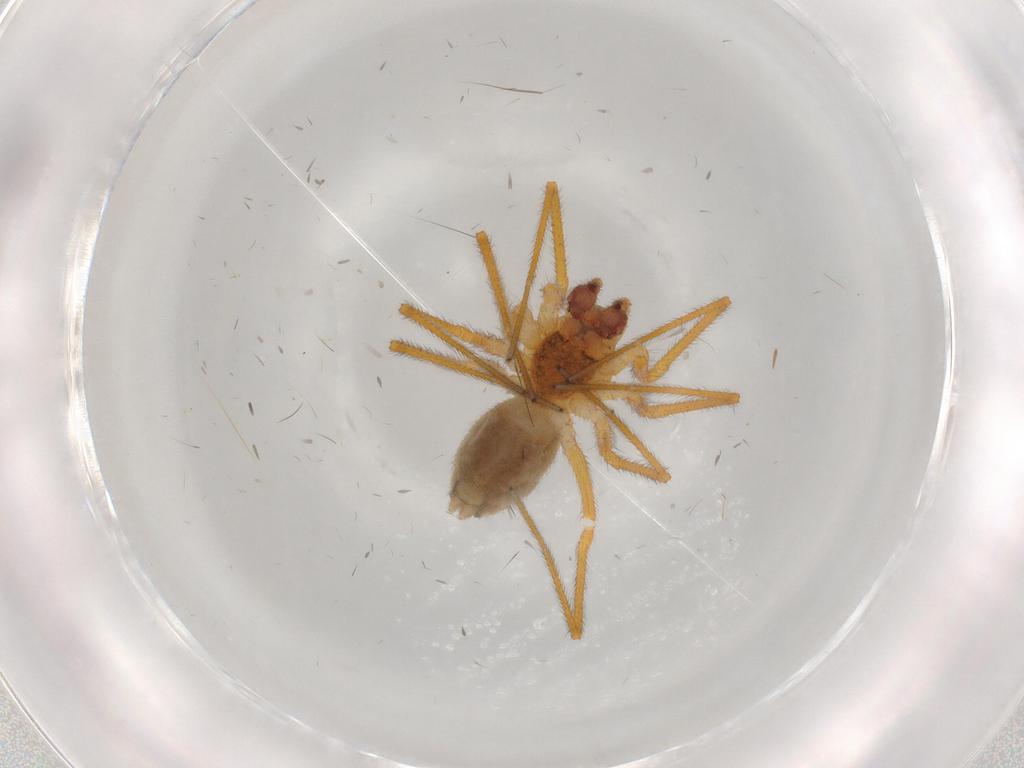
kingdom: Animalia
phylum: Arthropoda
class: Arachnida
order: Araneae
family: Linyphiidae
